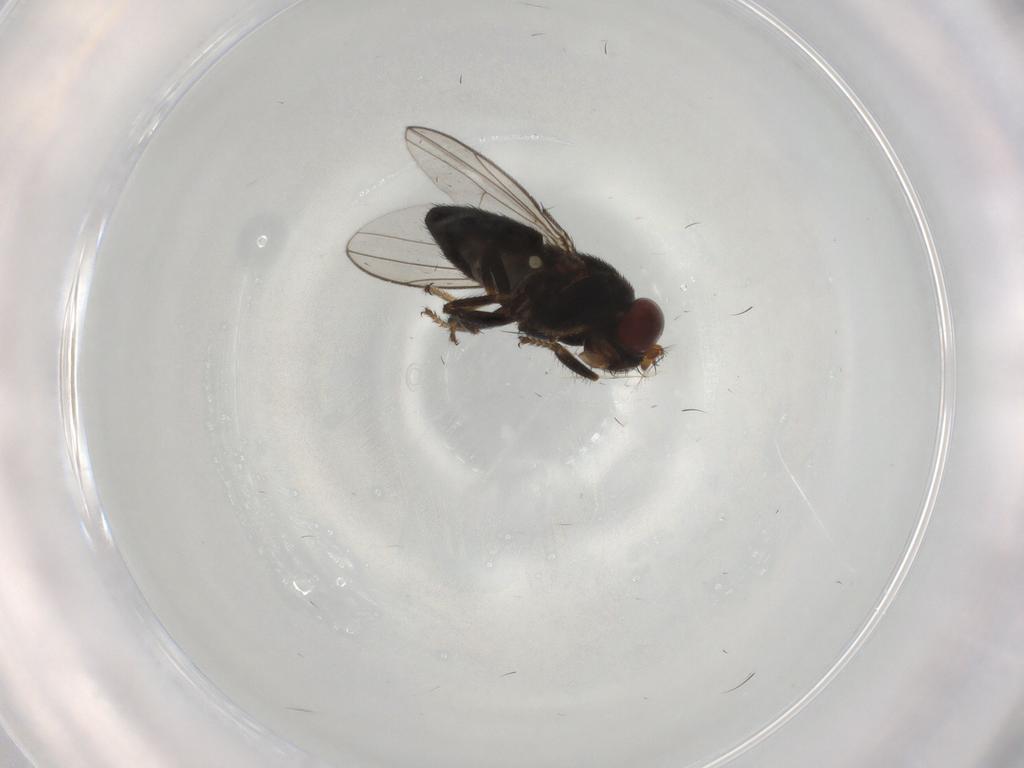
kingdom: Animalia
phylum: Arthropoda
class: Insecta
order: Diptera
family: Ephydridae
